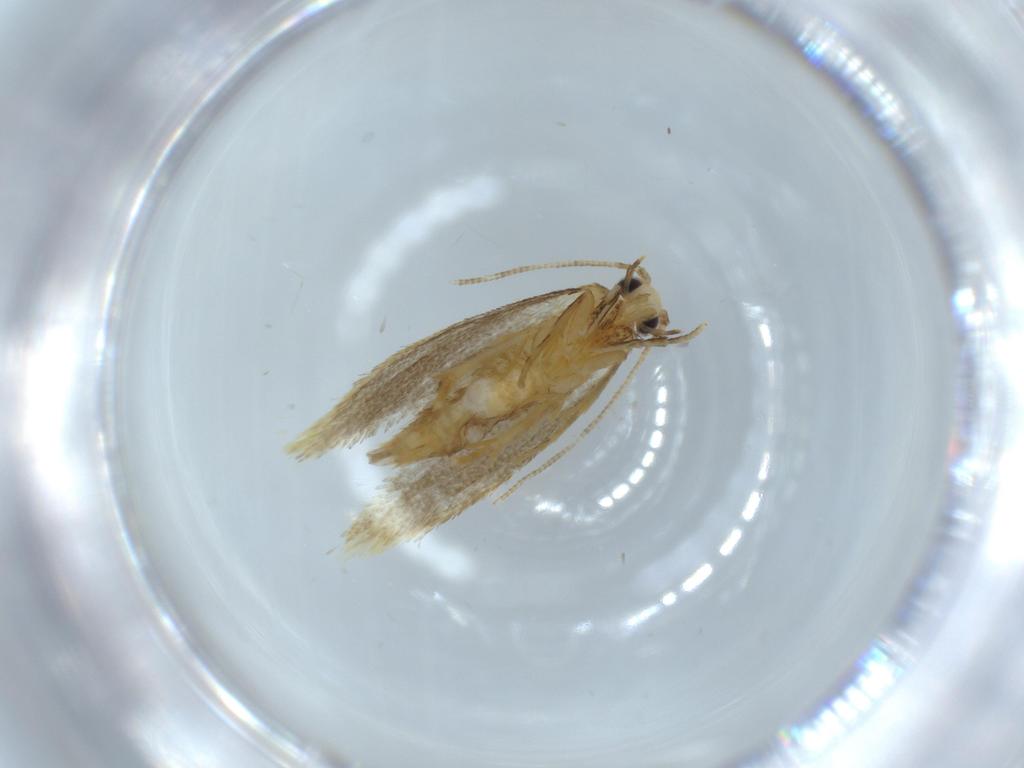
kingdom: Animalia
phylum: Arthropoda
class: Insecta
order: Lepidoptera
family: Tineidae
